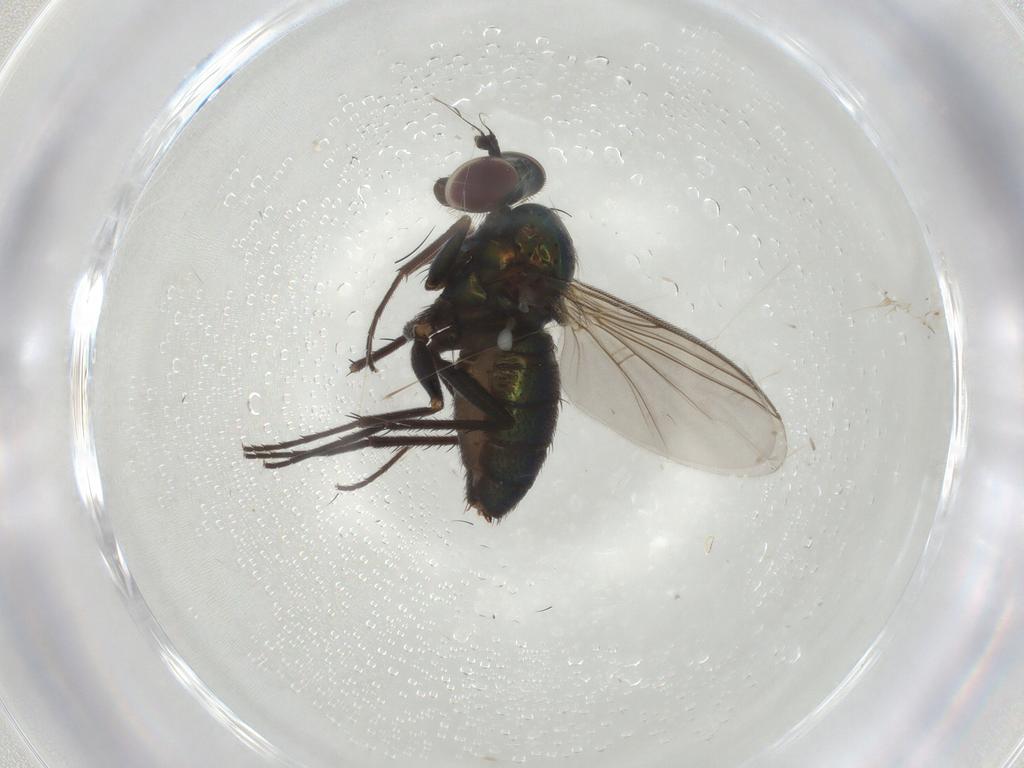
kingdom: Animalia
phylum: Arthropoda
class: Insecta
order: Diptera
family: Dolichopodidae
